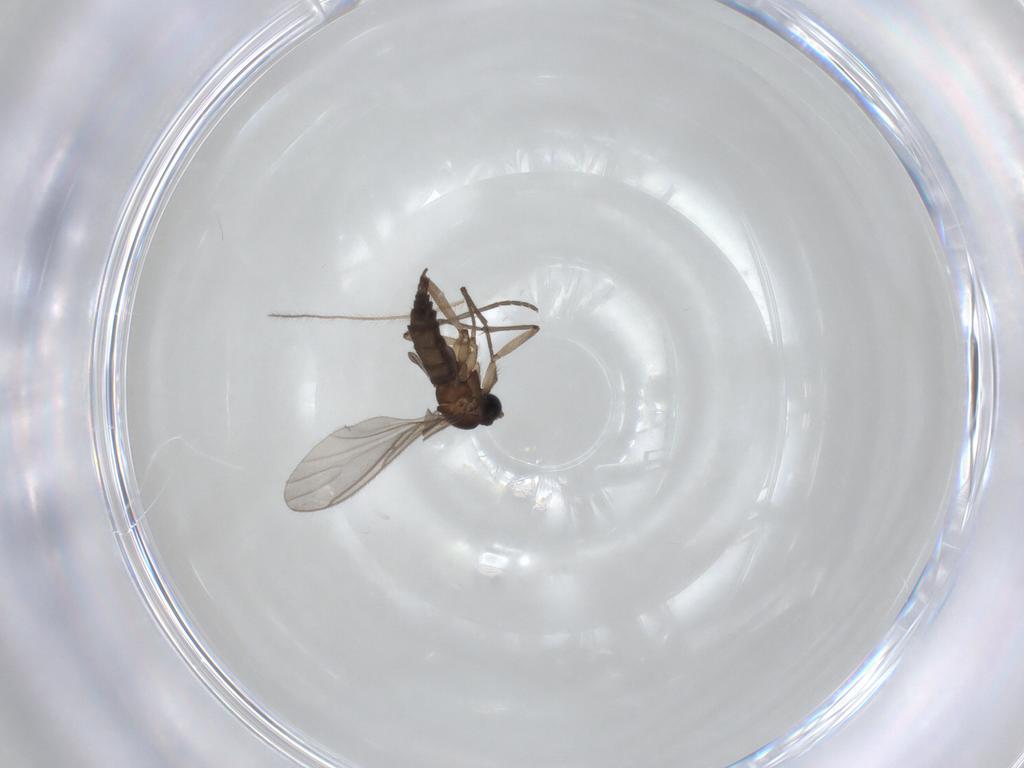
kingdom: Animalia
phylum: Arthropoda
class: Insecta
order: Diptera
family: Sciaridae
